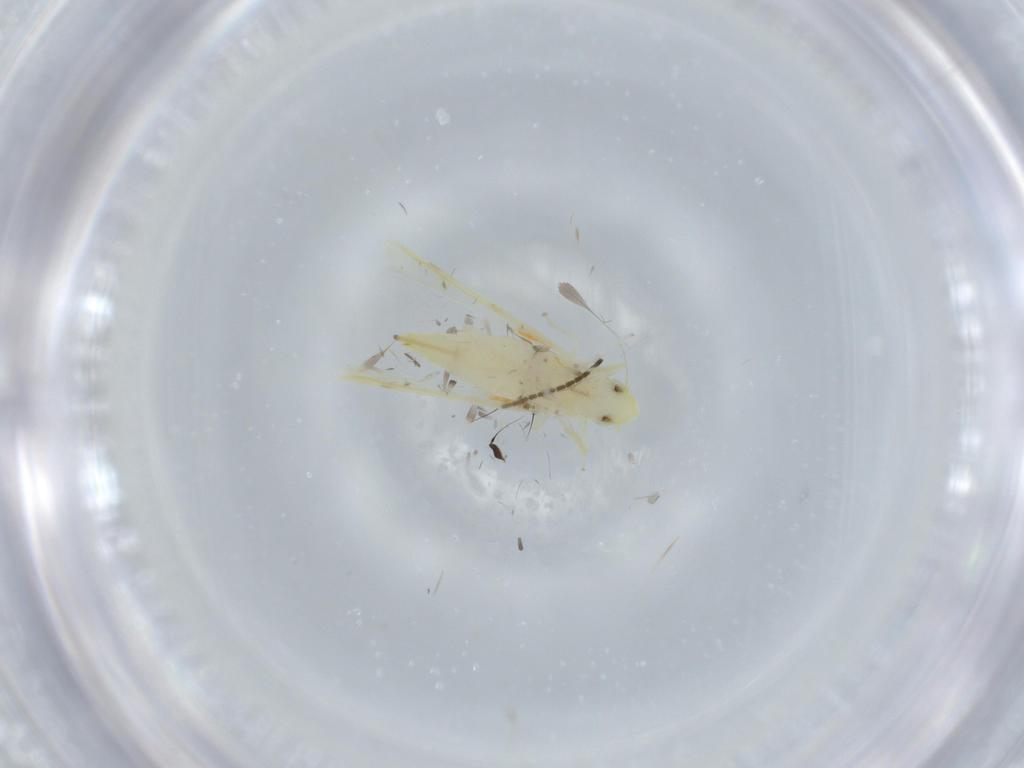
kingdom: Animalia
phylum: Arthropoda
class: Insecta
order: Hemiptera
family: Cicadellidae
